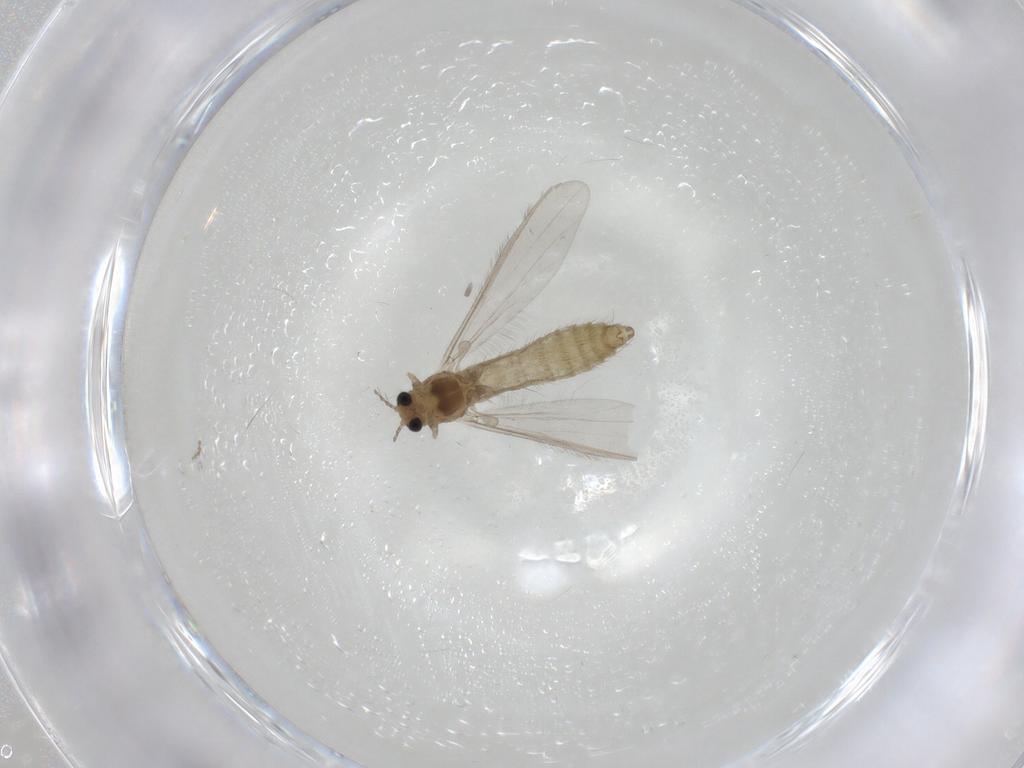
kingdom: Animalia
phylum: Arthropoda
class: Insecta
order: Diptera
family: Chironomidae
